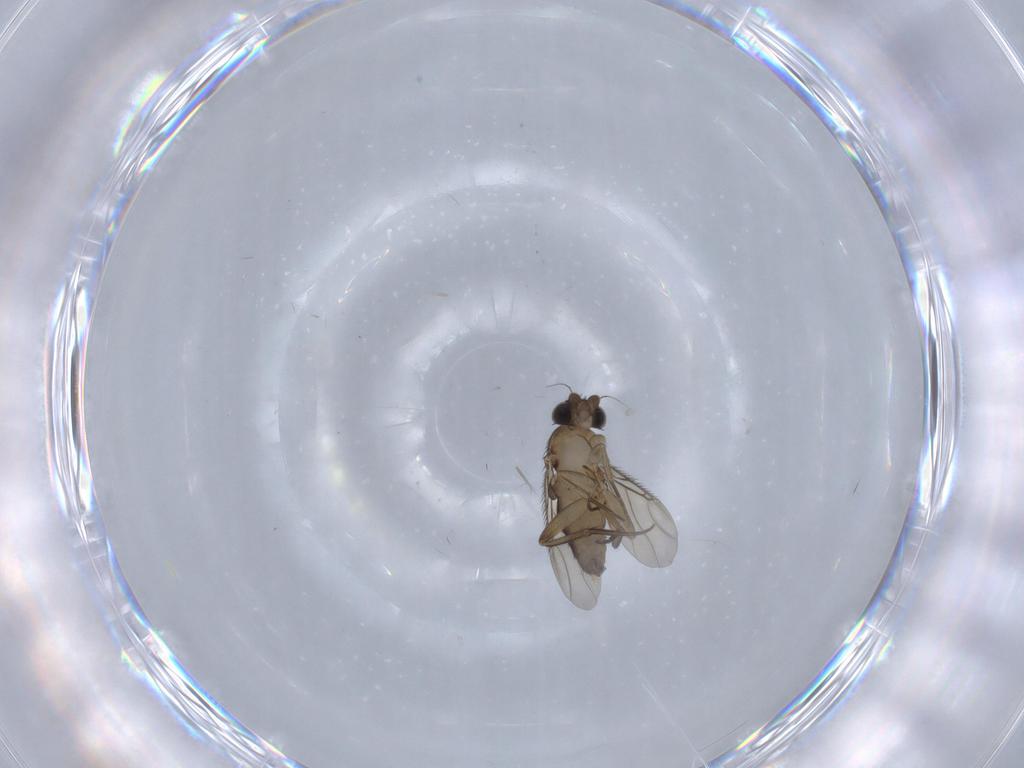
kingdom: Animalia
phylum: Arthropoda
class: Insecta
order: Diptera
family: Phoridae
